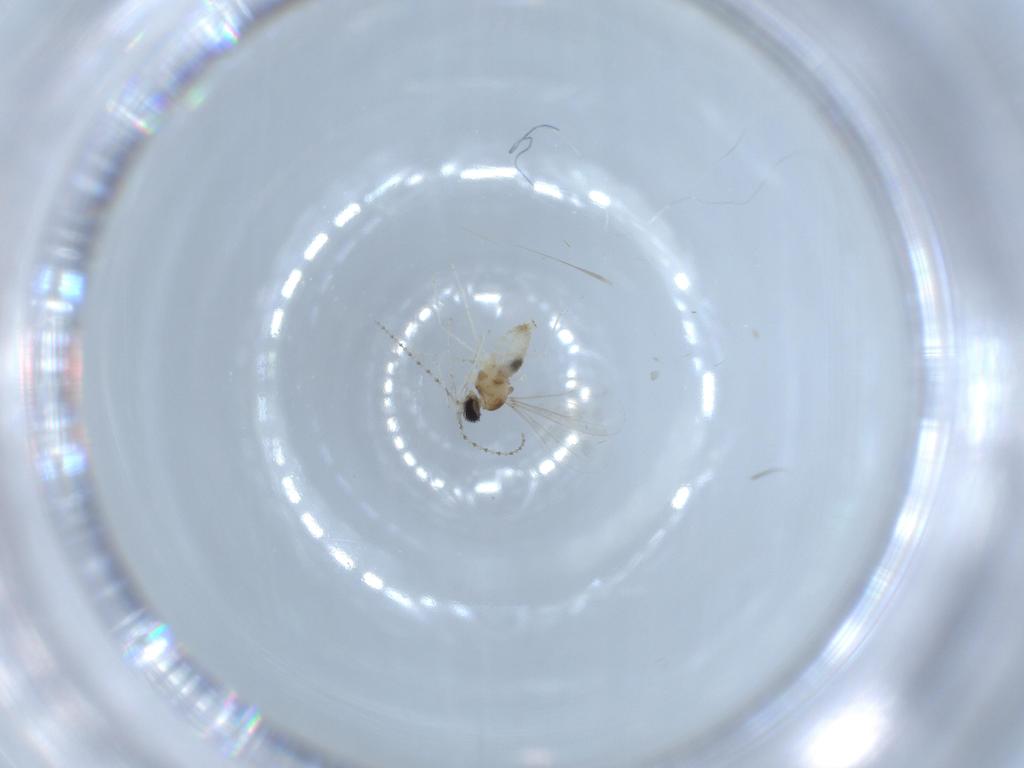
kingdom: Animalia
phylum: Arthropoda
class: Insecta
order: Diptera
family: Cecidomyiidae
